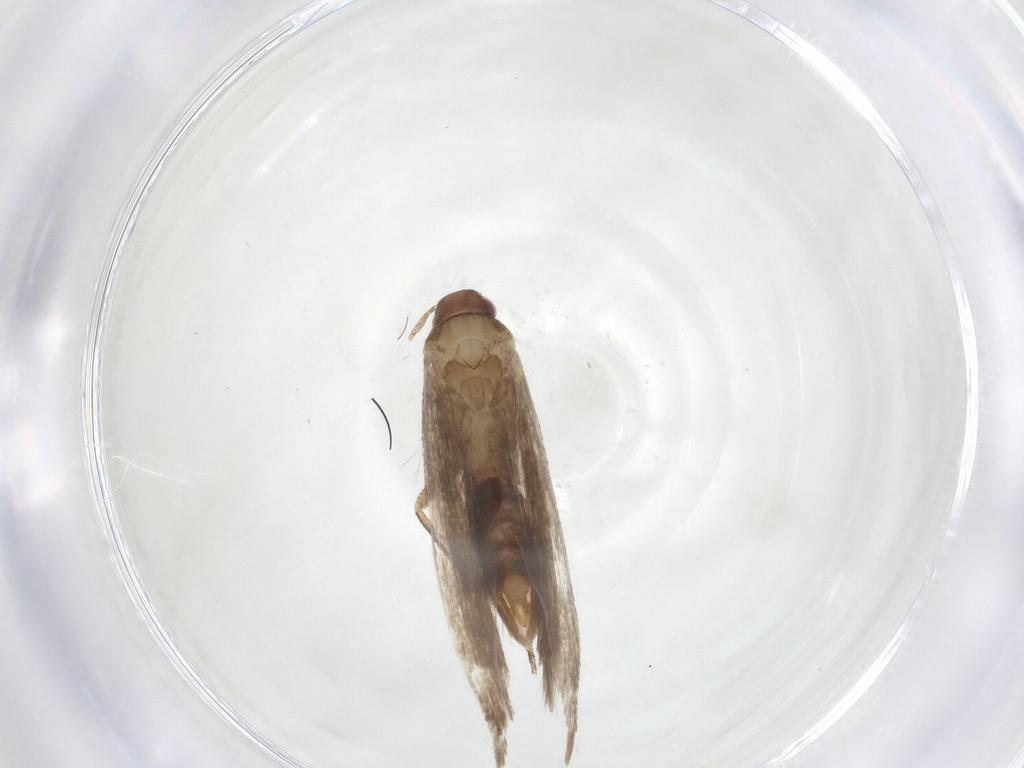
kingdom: Animalia
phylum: Arthropoda
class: Insecta
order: Lepidoptera
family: Gelechiidae
